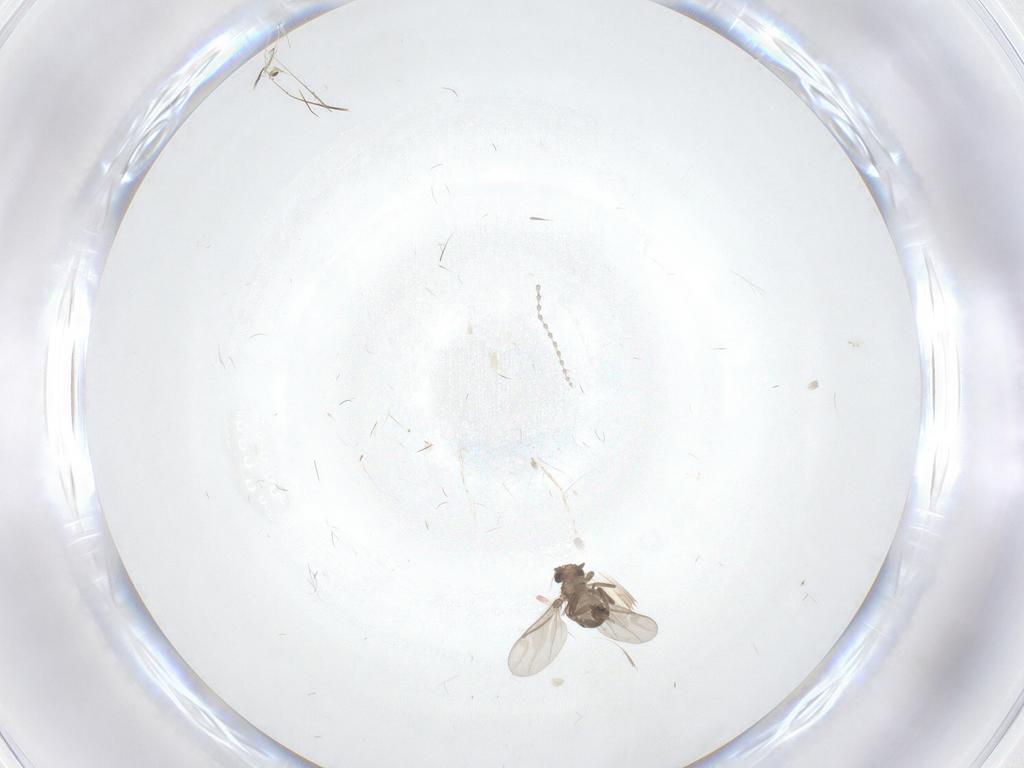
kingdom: Animalia
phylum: Arthropoda
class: Insecta
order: Diptera
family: Cecidomyiidae
